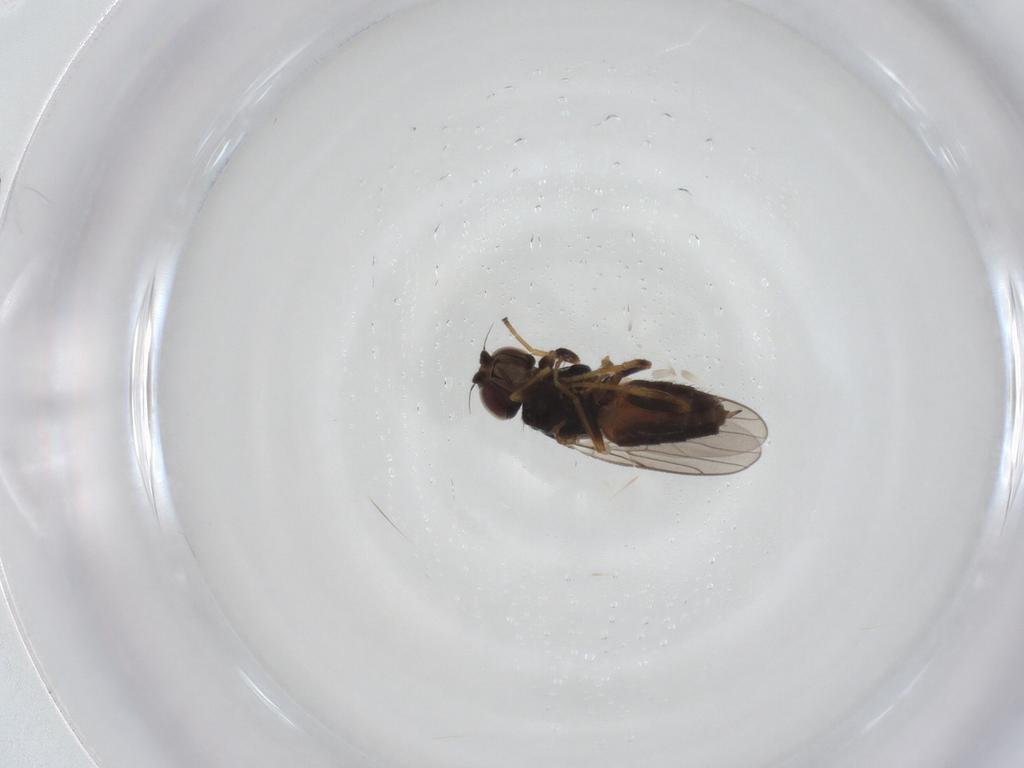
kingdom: Animalia
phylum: Arthropoda
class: Insecta
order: Diptera
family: Chloropidae
